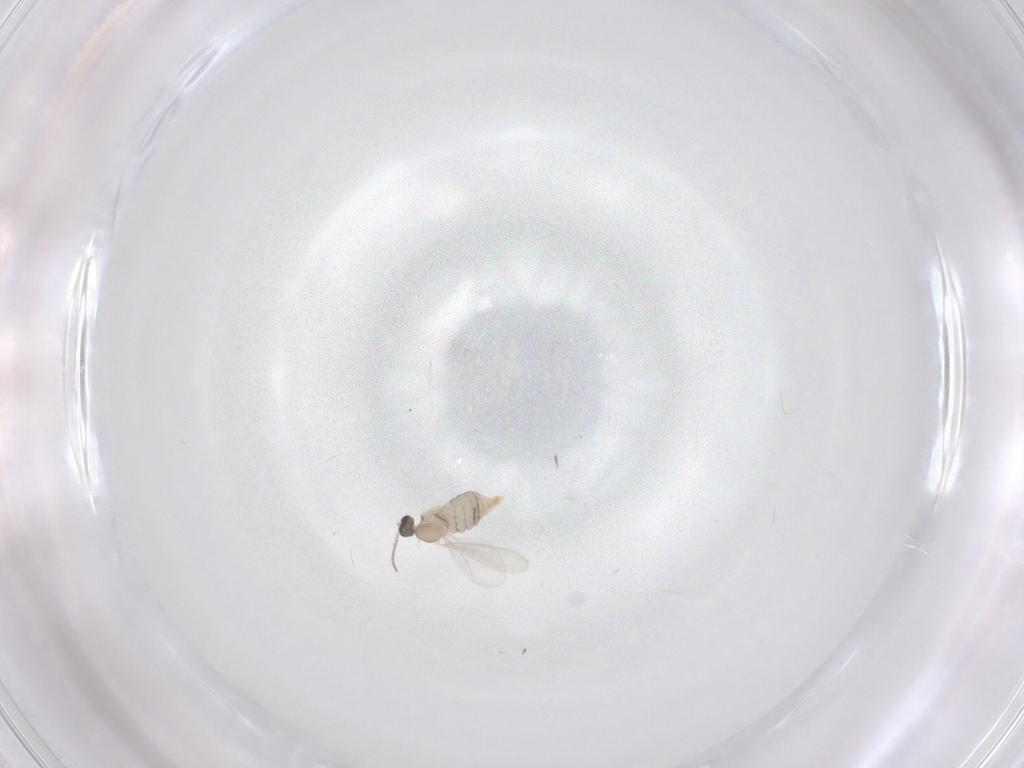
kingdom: Animalia
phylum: Arthropoda
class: Insecta
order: Diptera
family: Cecidomyiidae
